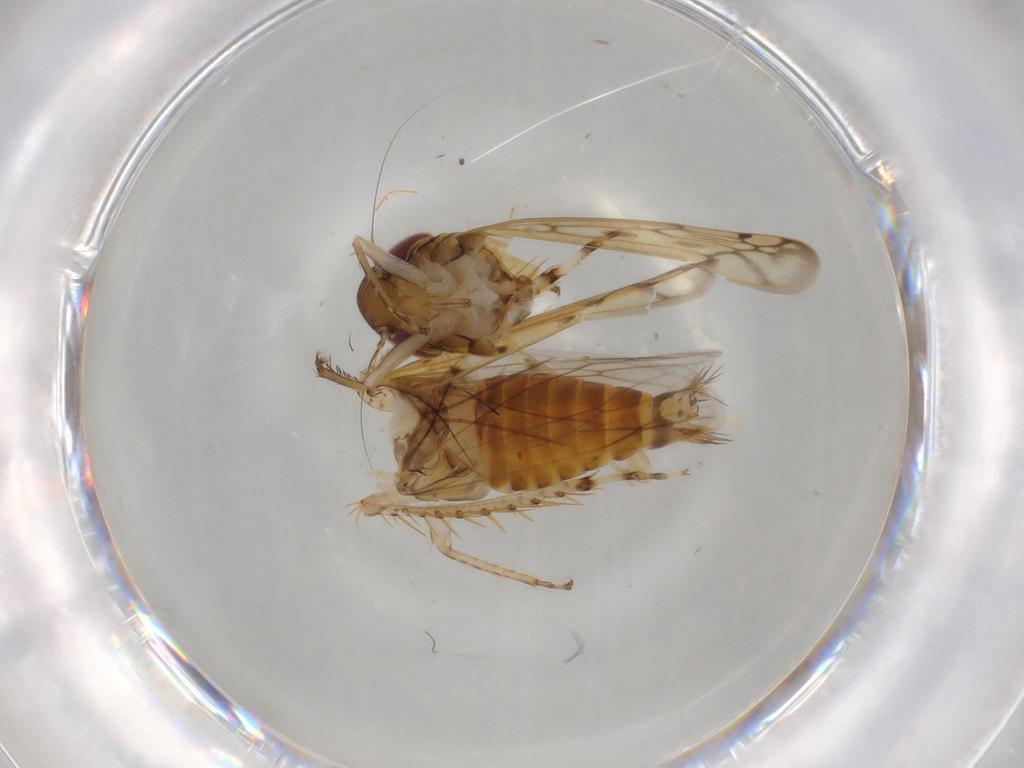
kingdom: Animalia
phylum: Arthropoda
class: Insecta
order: Hemiptera
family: Cicadellidae
